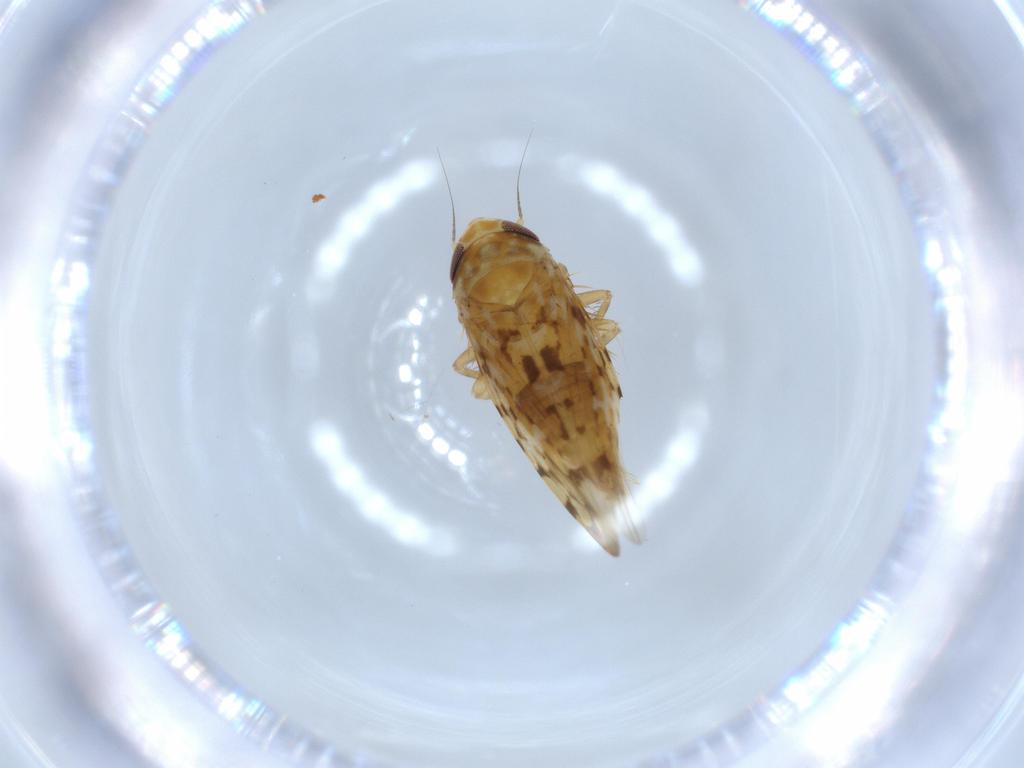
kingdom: Animalia
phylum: Arthropoda
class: Insecta
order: Hemiptera
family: Cicadellidae
